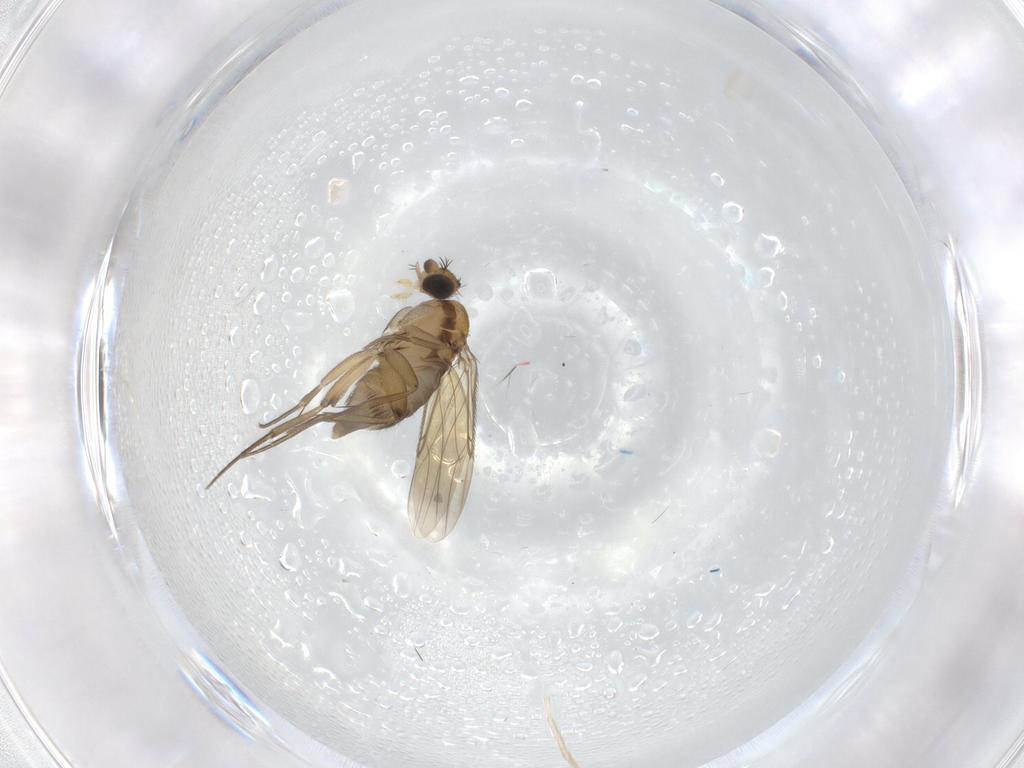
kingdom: Animalia
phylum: Arthropoda
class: Insecta
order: Diptera
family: Phoridae
